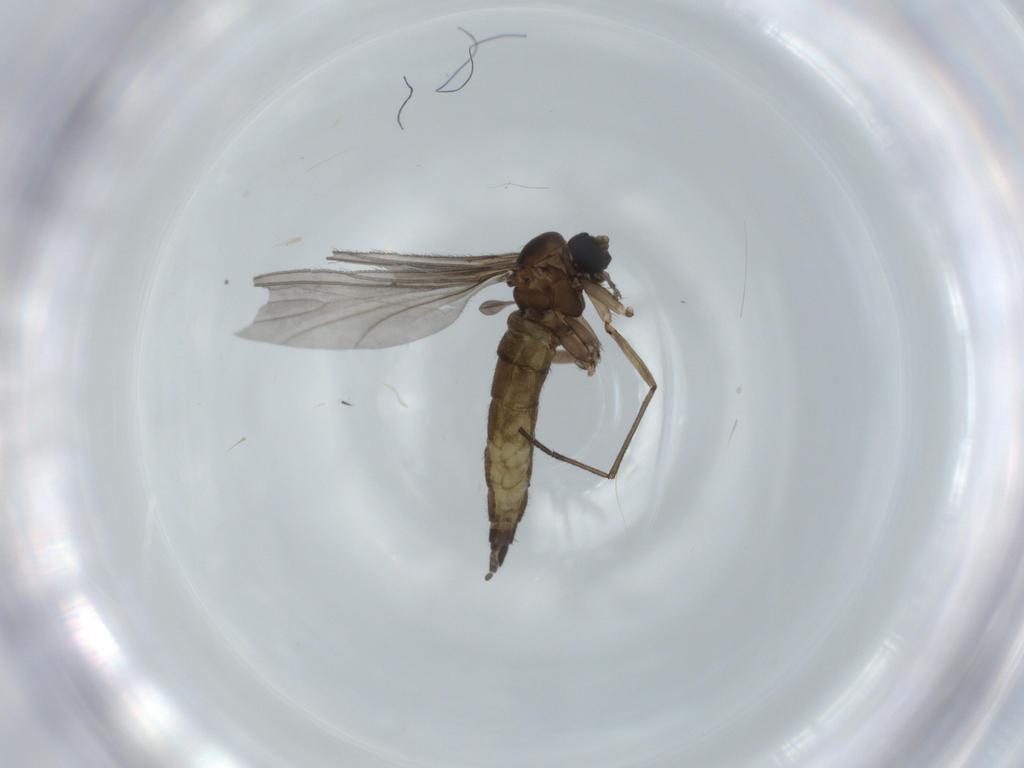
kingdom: Animalia
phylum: Arthropoda
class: Insecta
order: Diptera
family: Sciaridae
